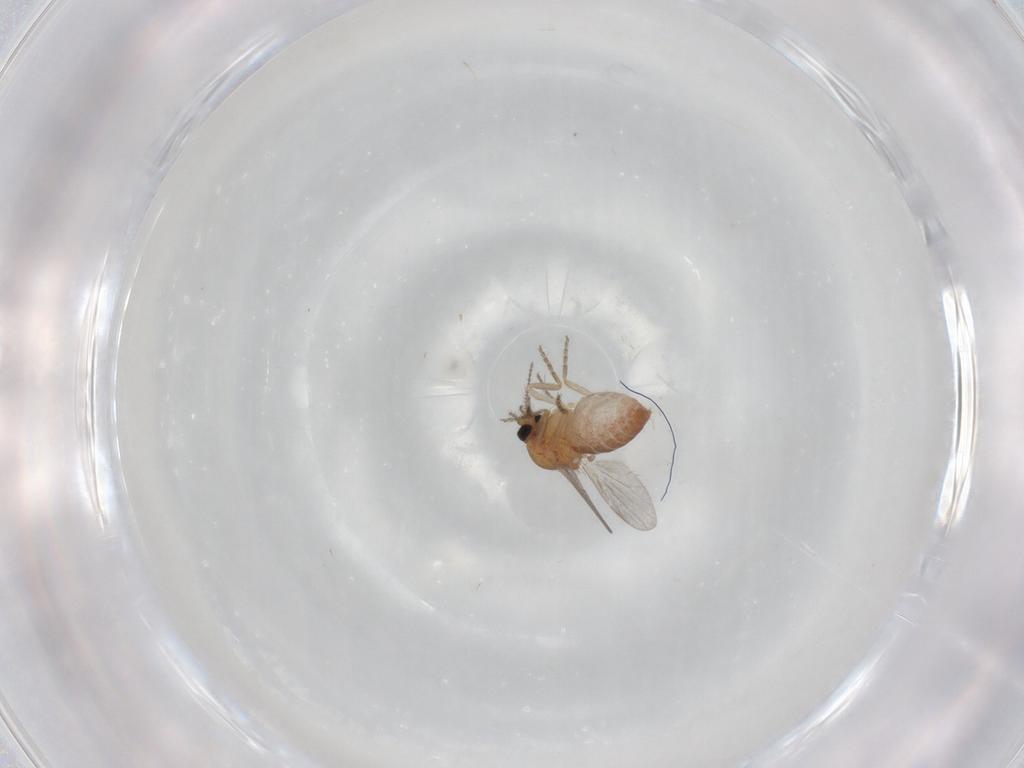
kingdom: Animalia
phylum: Arthropoda
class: Insecta
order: Diptera
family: Ceratopogonidae
